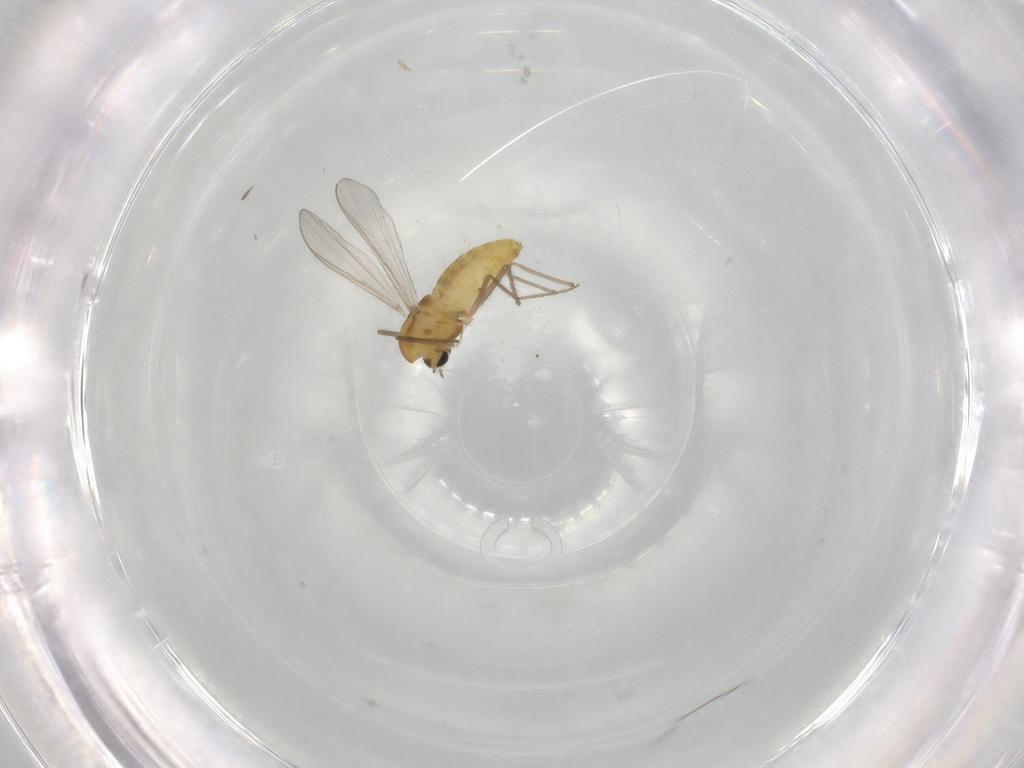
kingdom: Animalia
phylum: Arthropoda
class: Insecta
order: Diptera
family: Chironomidae
